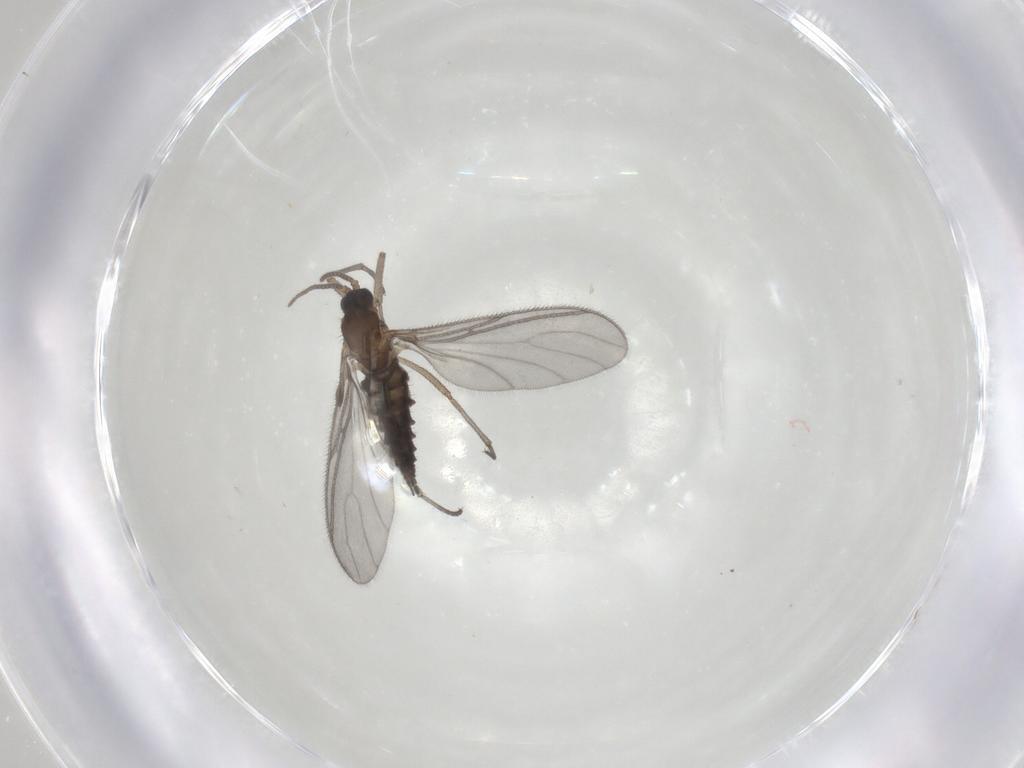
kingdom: Animalia
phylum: Arthropoda
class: Insecta
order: Diptera
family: Sciaridae
